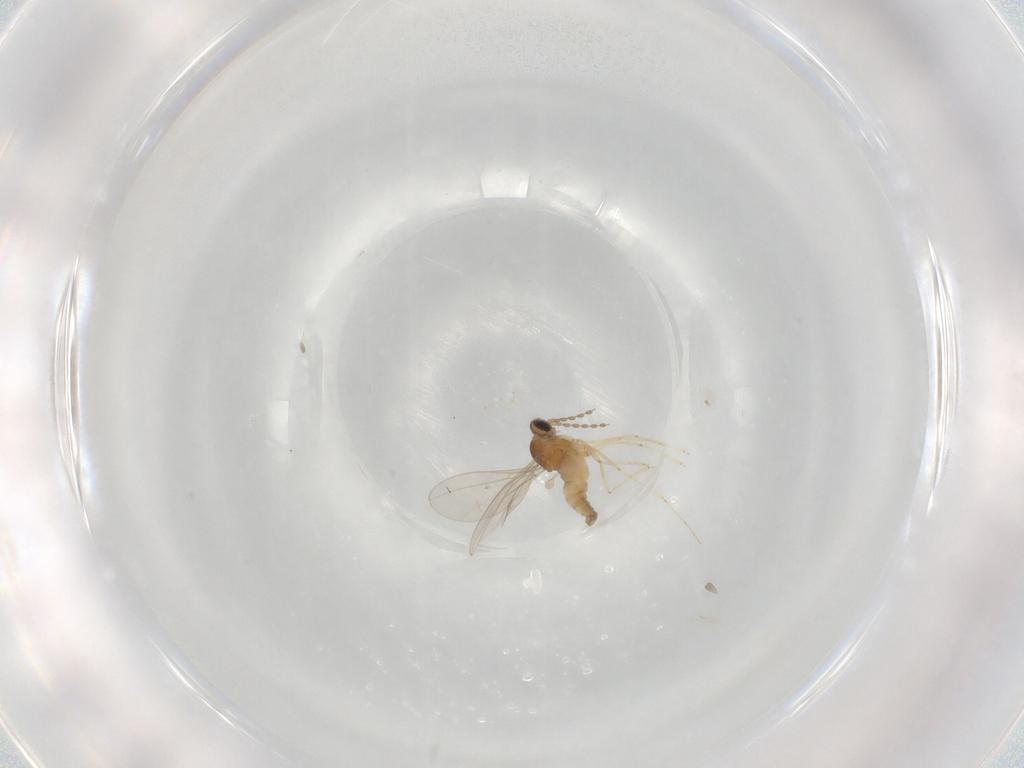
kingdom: Animalia
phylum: Arthropoda
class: Insecta
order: Diptera
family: Cecidomyiidae
